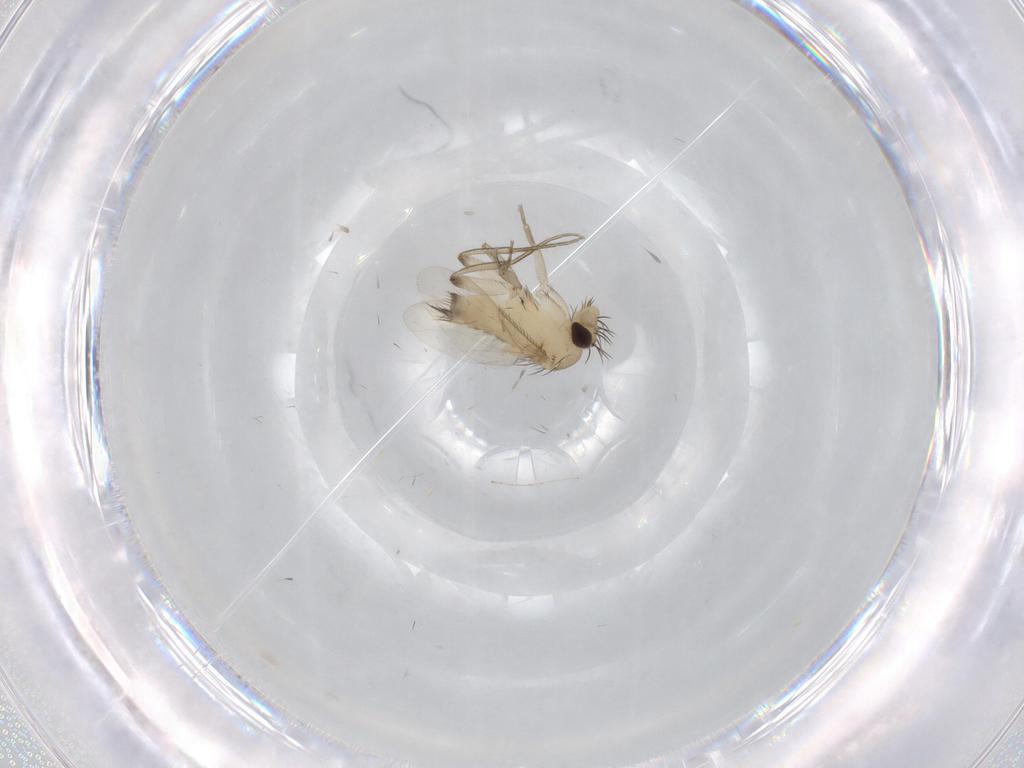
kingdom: Animalia
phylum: Arthropoda
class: Insecta
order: Diptera
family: Phoridae
